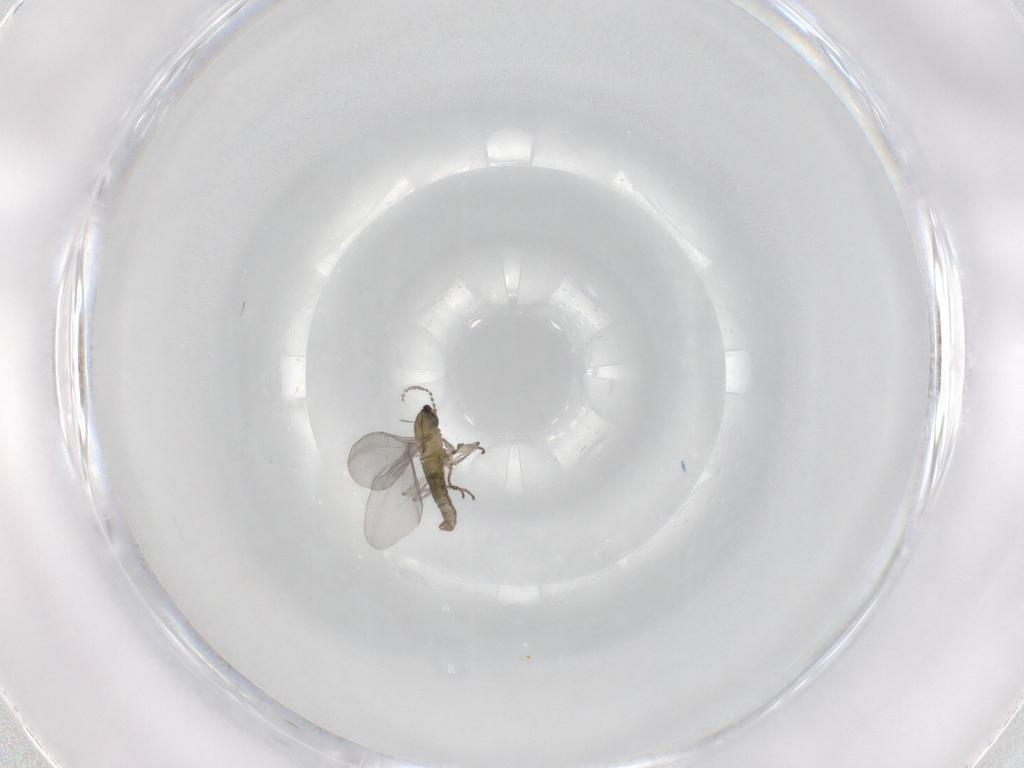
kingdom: Animalia
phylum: Arthropoda
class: Insecta
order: Diptera
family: Cecidomyiidae
